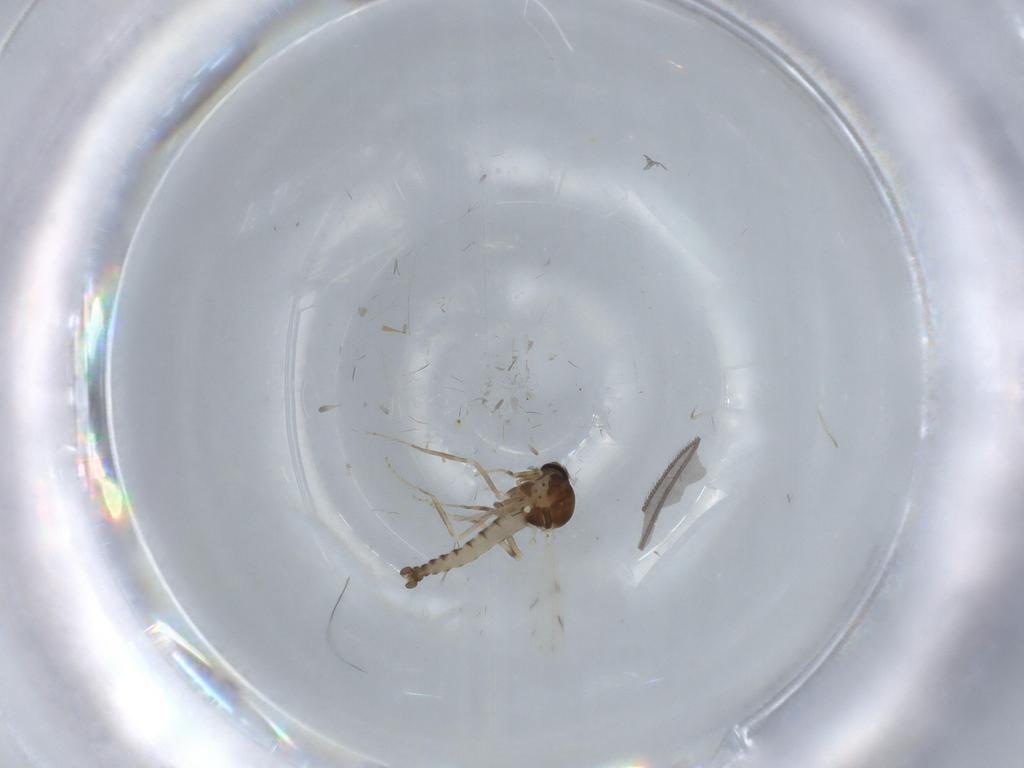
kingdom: Animalia
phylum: Arthropoda
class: Insecta
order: Diptera
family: Ceratopogonidae
